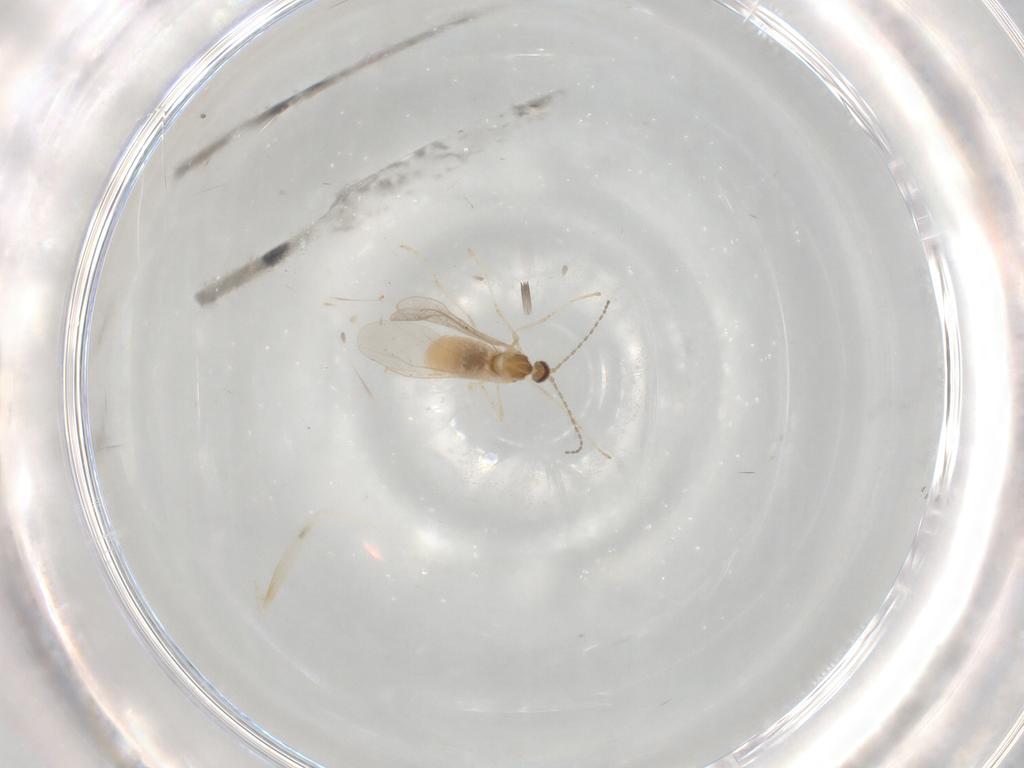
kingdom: Animalia
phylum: Arthropoda
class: Insecta
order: Diptera
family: Cecidomyiidae
